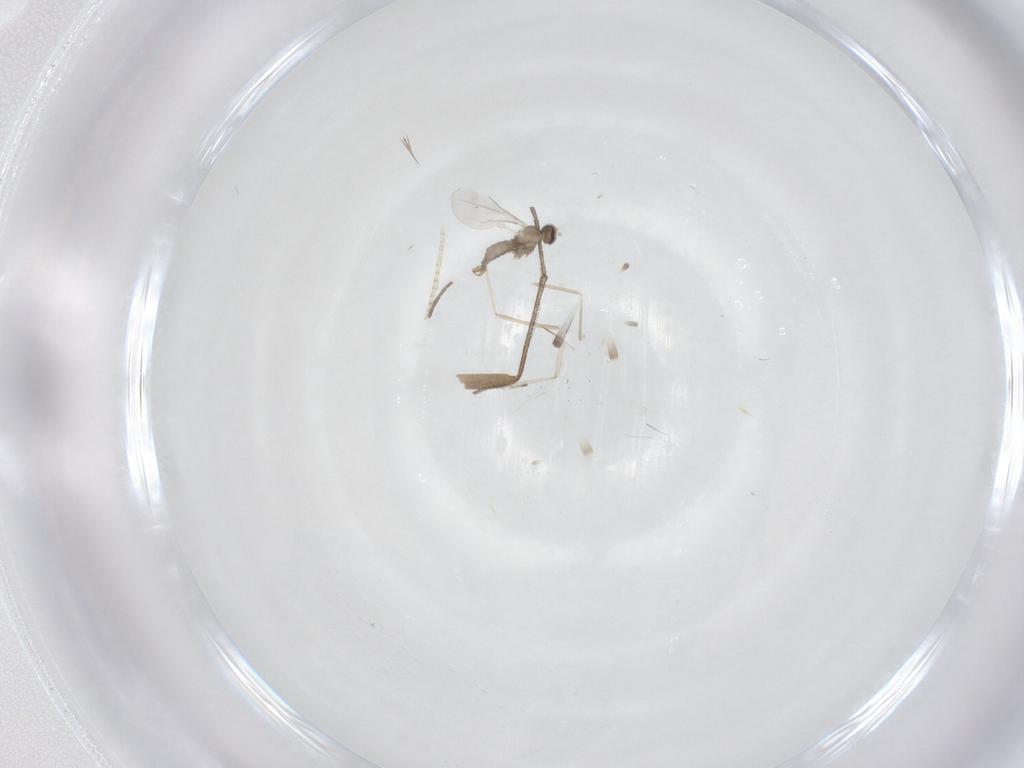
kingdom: Animalia
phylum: Arthropoda
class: Insecta
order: Diptera
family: Cecidomyiidae
